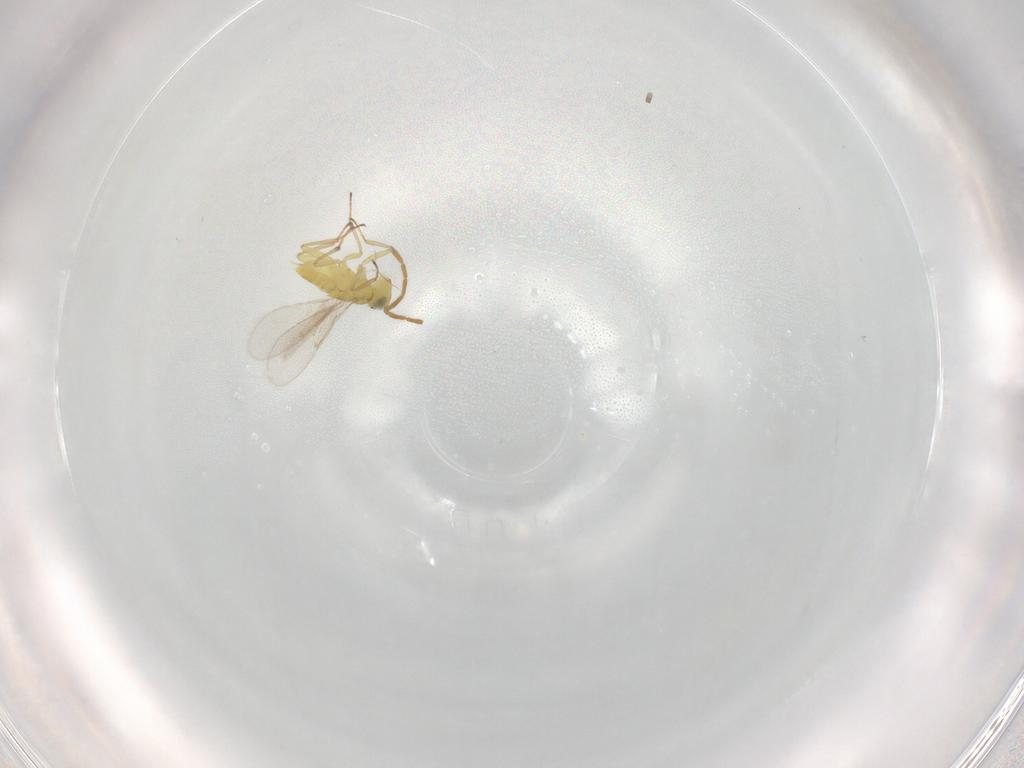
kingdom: Animalia
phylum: Arthropoda
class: Insecta
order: Hymenoptera
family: Aphelinidae
